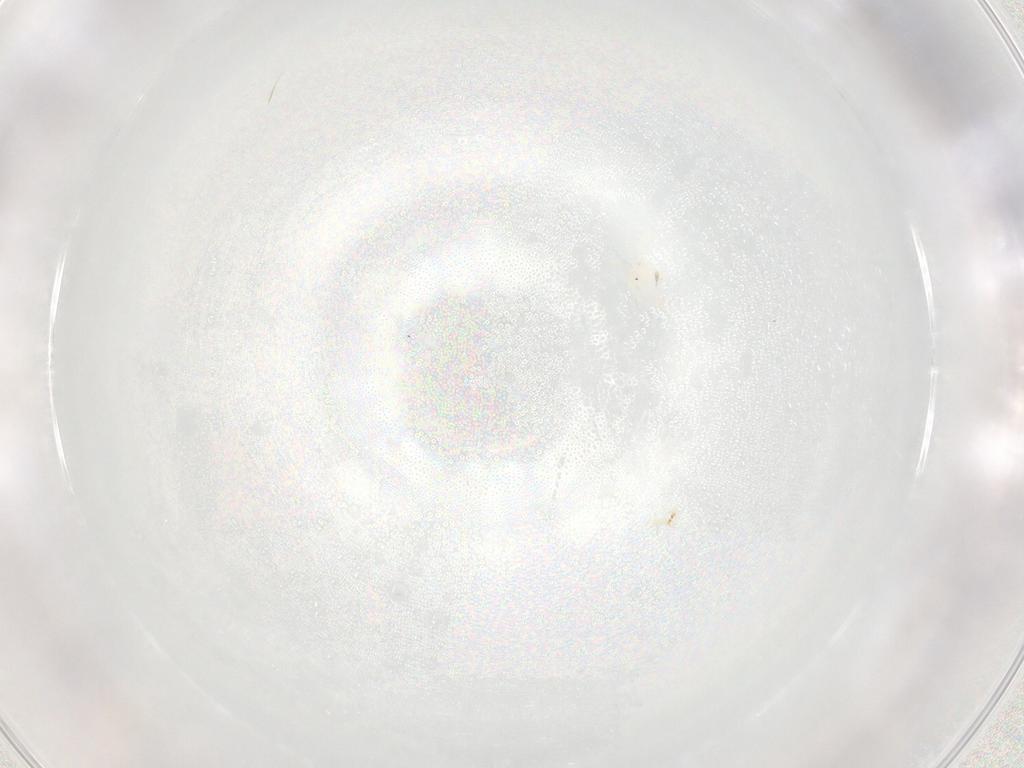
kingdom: Animalia
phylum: Arthropoda
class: Arachnida
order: Trombidiformes
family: Anystidae
